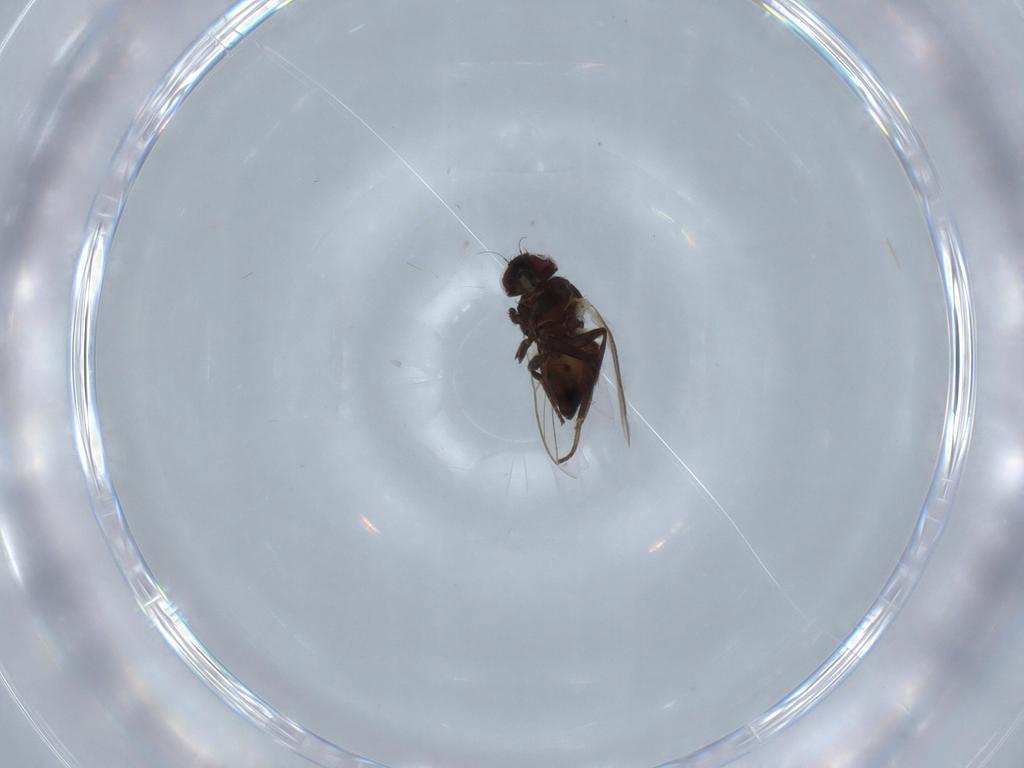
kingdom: Animalia
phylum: Arthropoda
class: Insecta
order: Diptera
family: Agromyzidae
